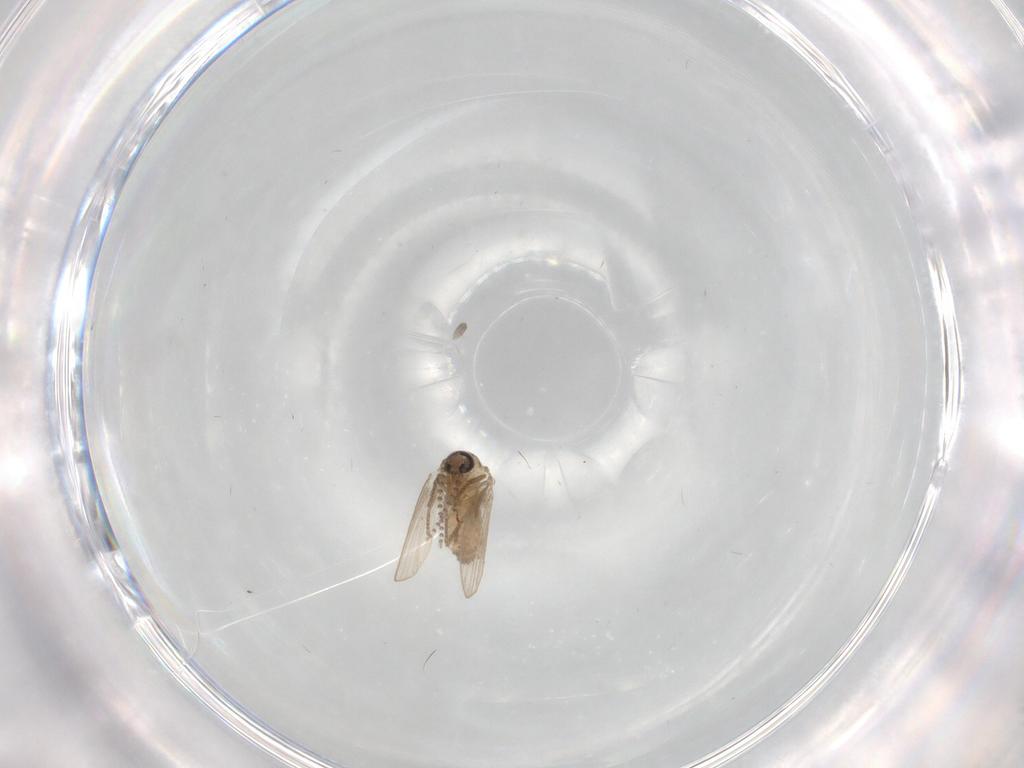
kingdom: Animalia
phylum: Arthropoda
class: Insecta
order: Diptera
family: Psychodidae
